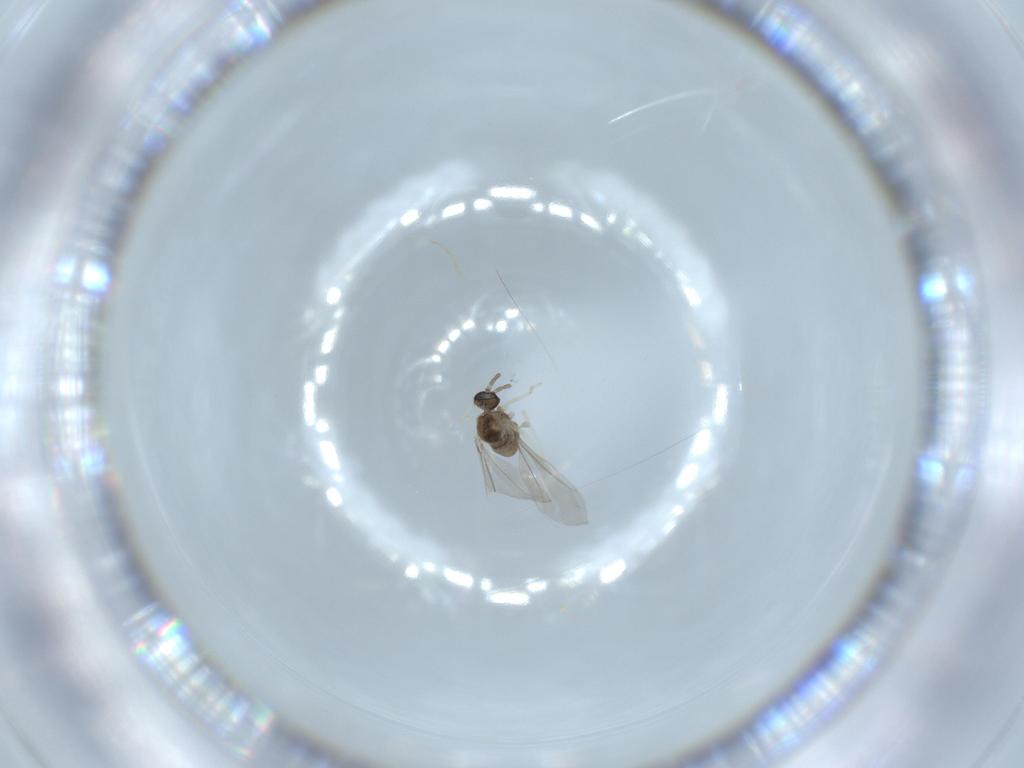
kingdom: Animalia
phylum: Arthropoda
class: Insecta
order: Diptera
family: Cecidomyiidae
